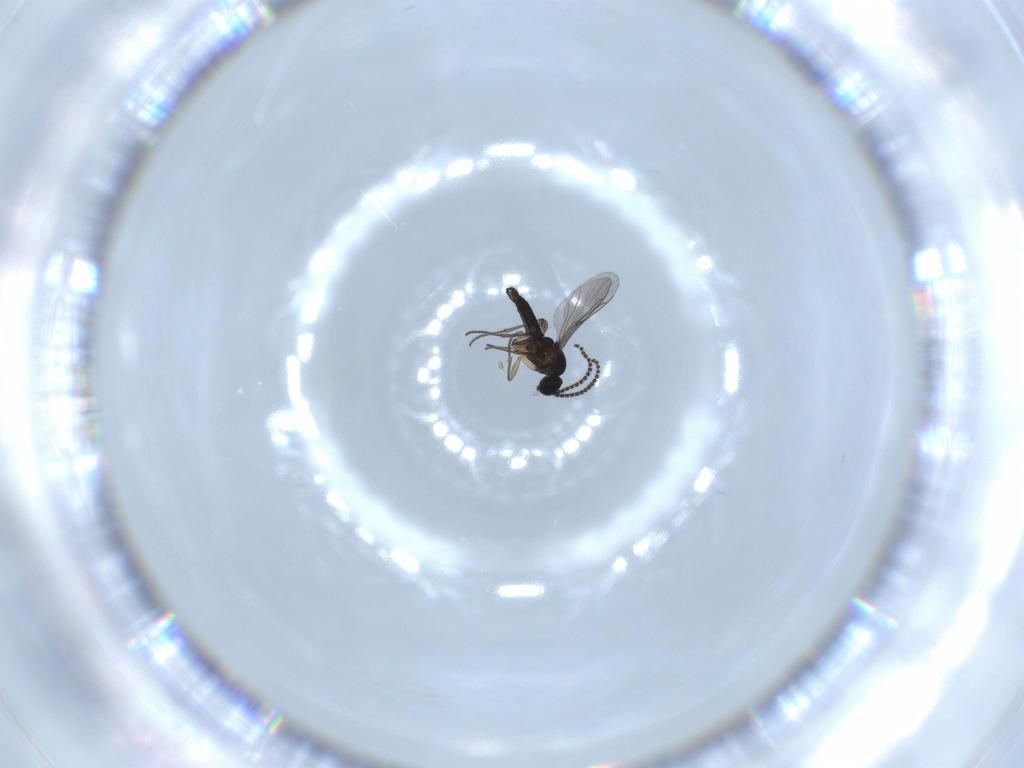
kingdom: Animalia
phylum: Arthropoda
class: Insecta
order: Diptera
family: Sciaridae
